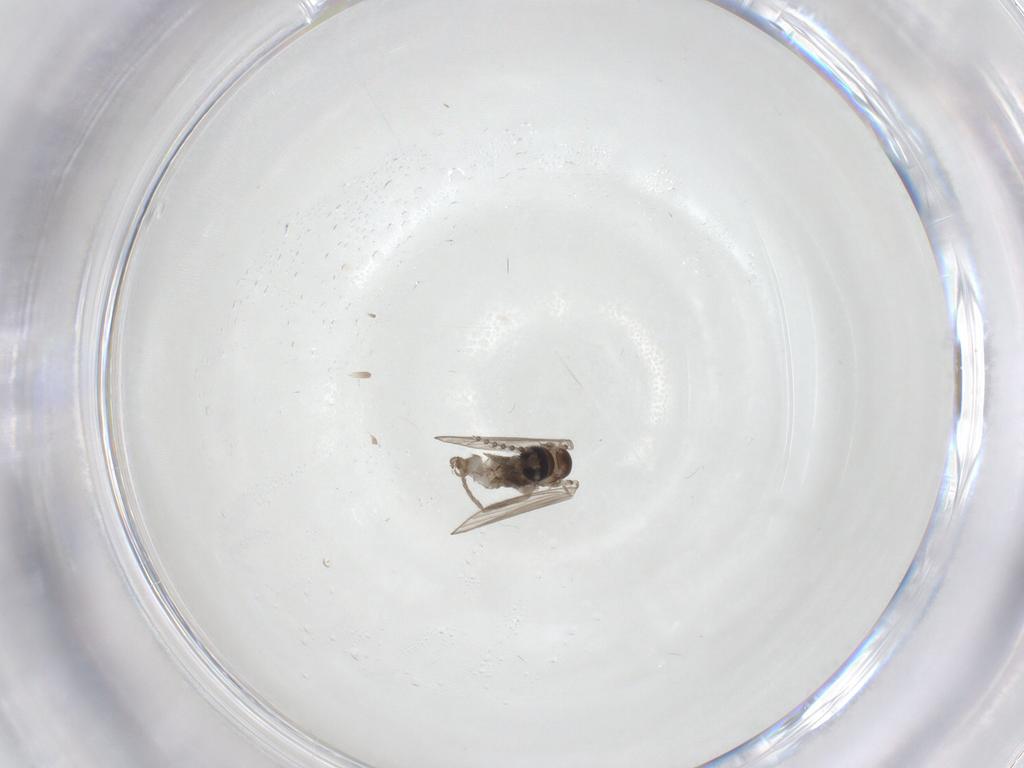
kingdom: Animalia
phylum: Arthropoda
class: Insecta
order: Diptera
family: Psychodidae
